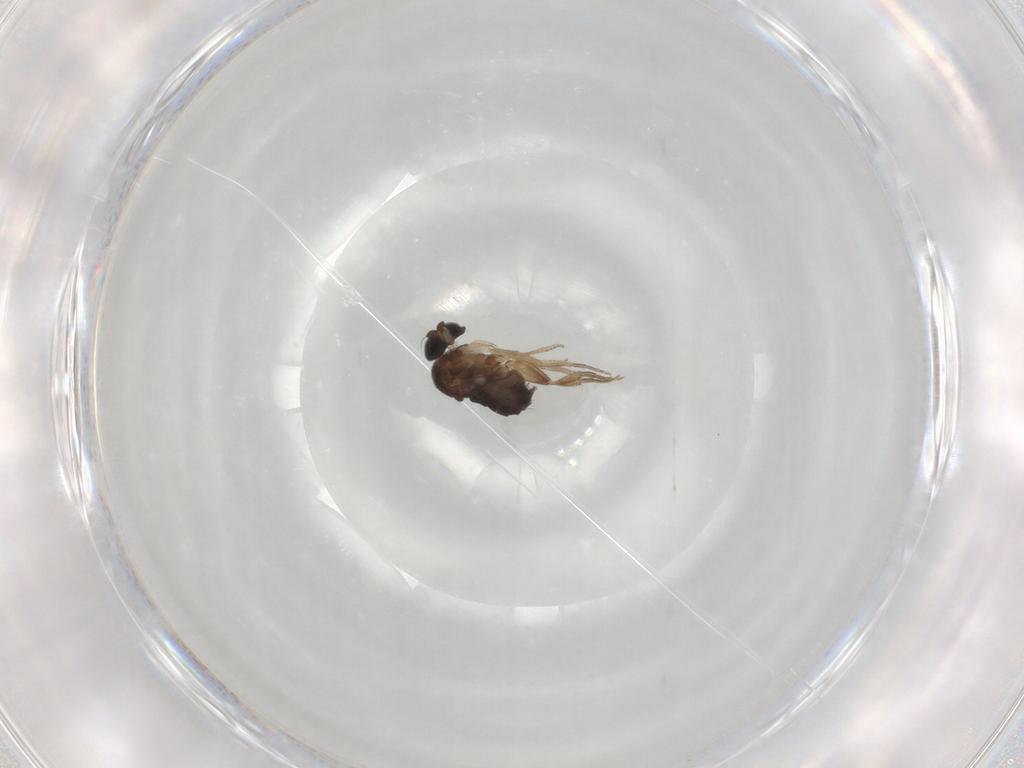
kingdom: Animalia
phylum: Arthropoda
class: Insecta
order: Diptera
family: Phoridae
